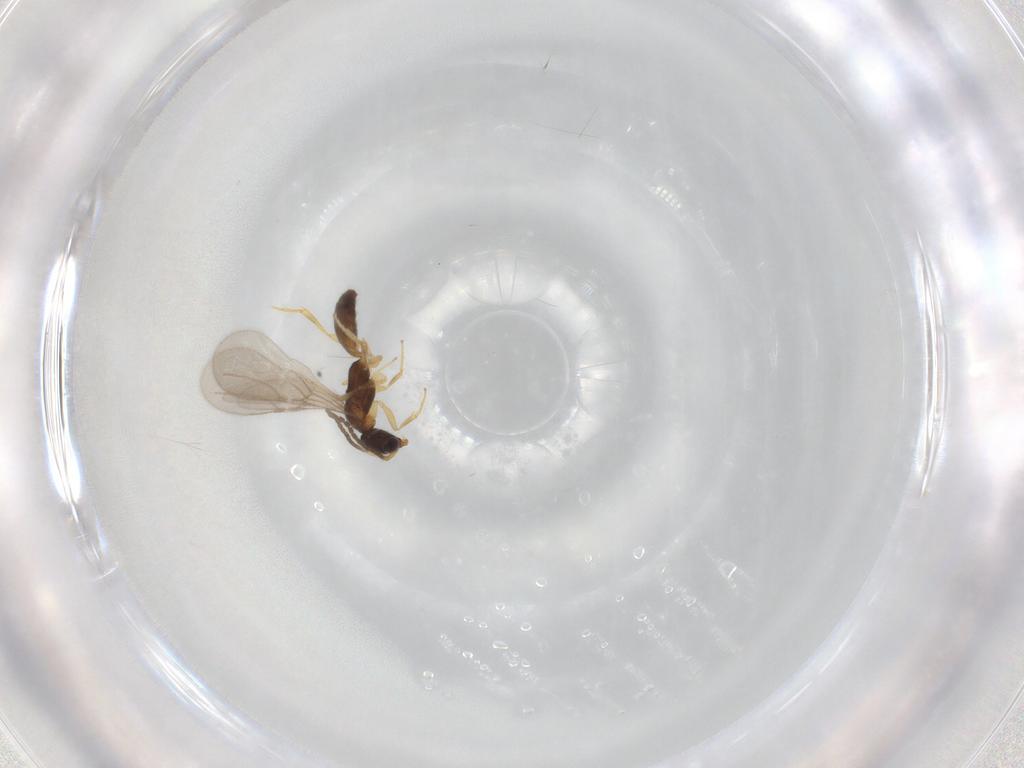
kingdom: Animalia
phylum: Arthropoda
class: Insecta
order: Hymenoptera
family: Bethylidae
